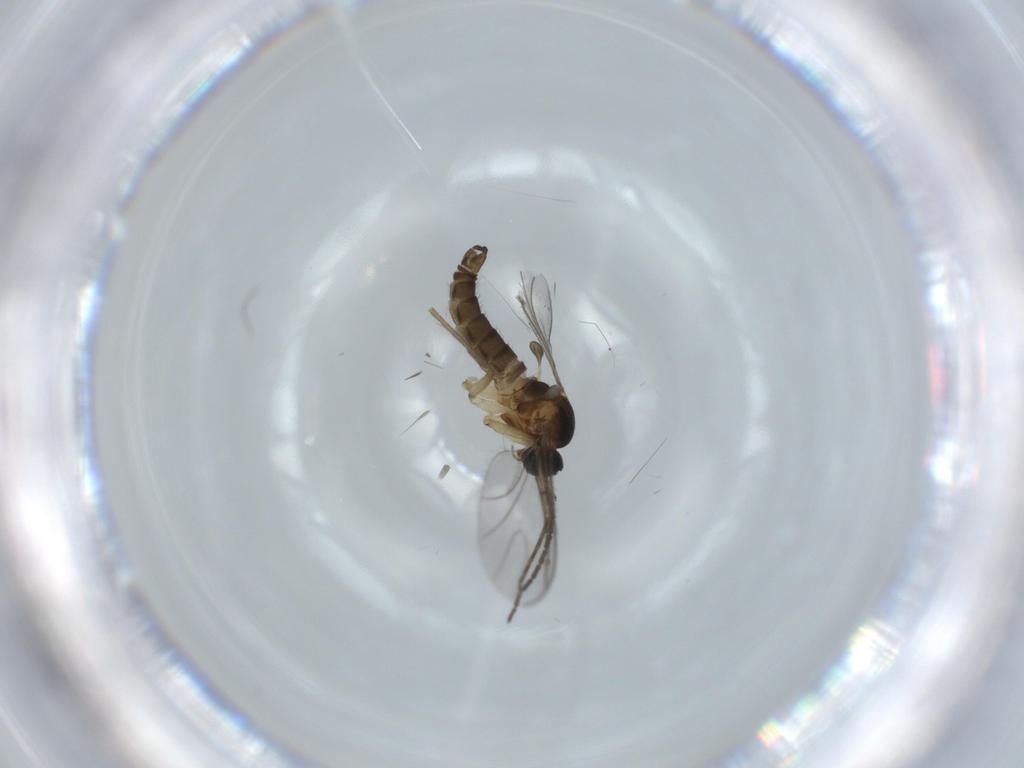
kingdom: Animalia
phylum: Arthropoda
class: Insecta
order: Diptera
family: Sciaridae
